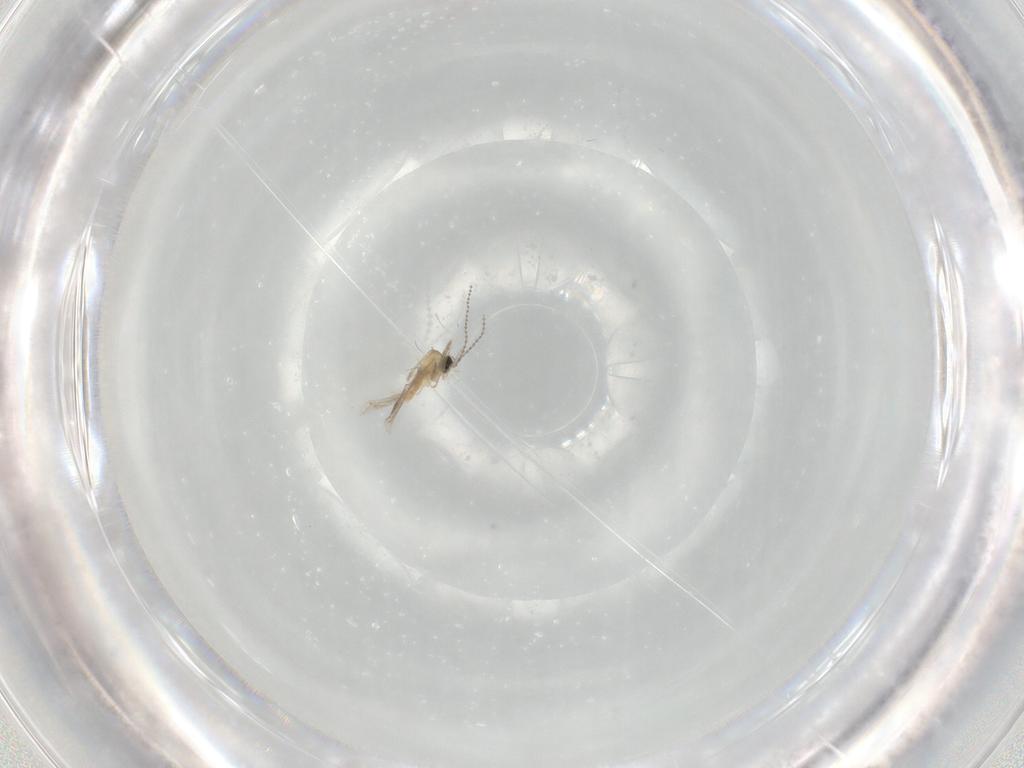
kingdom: Animalia
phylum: Arthropoda
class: Insecta
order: Diptera
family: Cecidomyiidae
